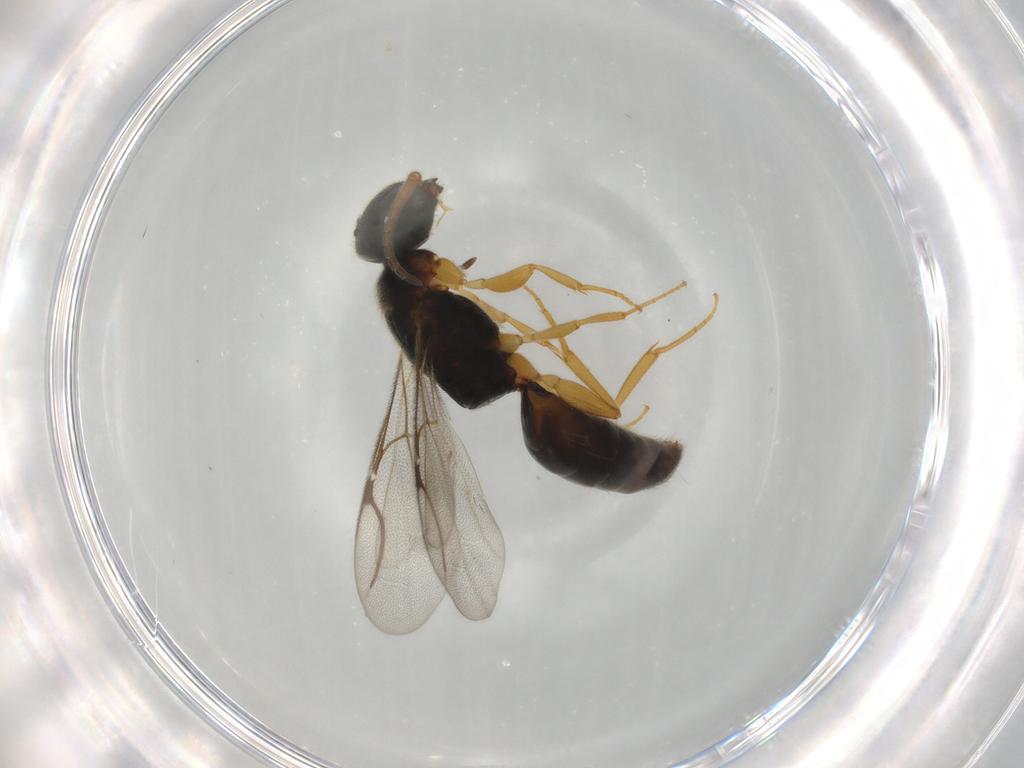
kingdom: Animalia
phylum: Arthropoda
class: Insecta
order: Hymenoptera
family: Bethylidae
